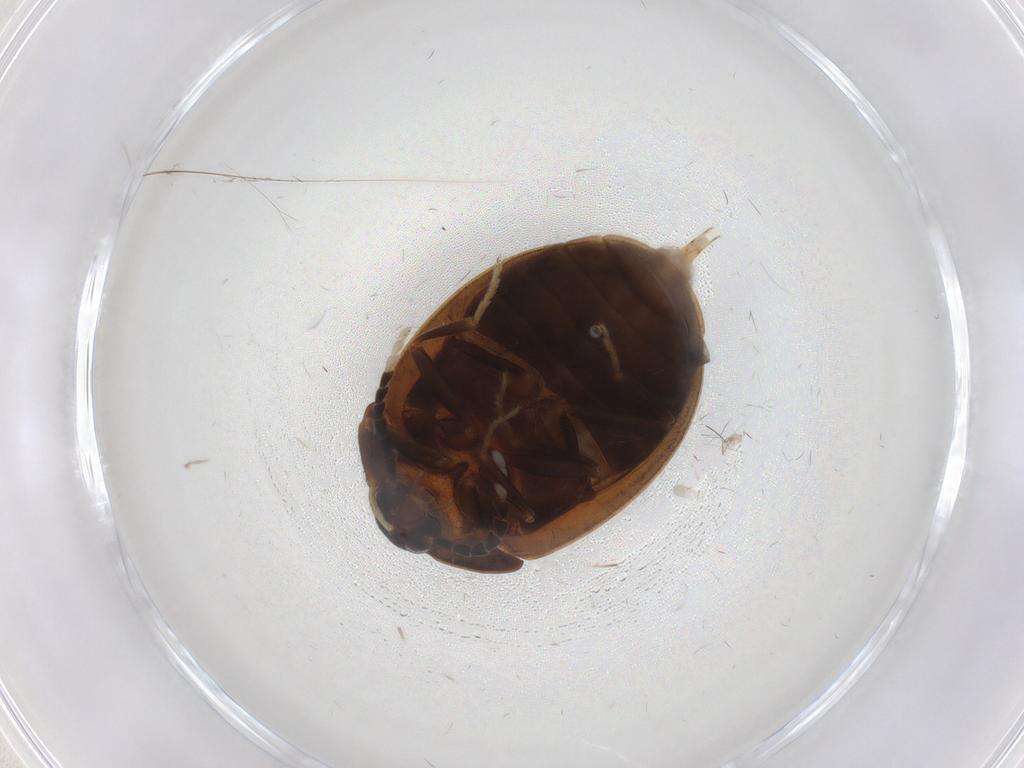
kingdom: Animalia
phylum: Arthropoda
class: Insecta
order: Coleoptera
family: Psephenidae
